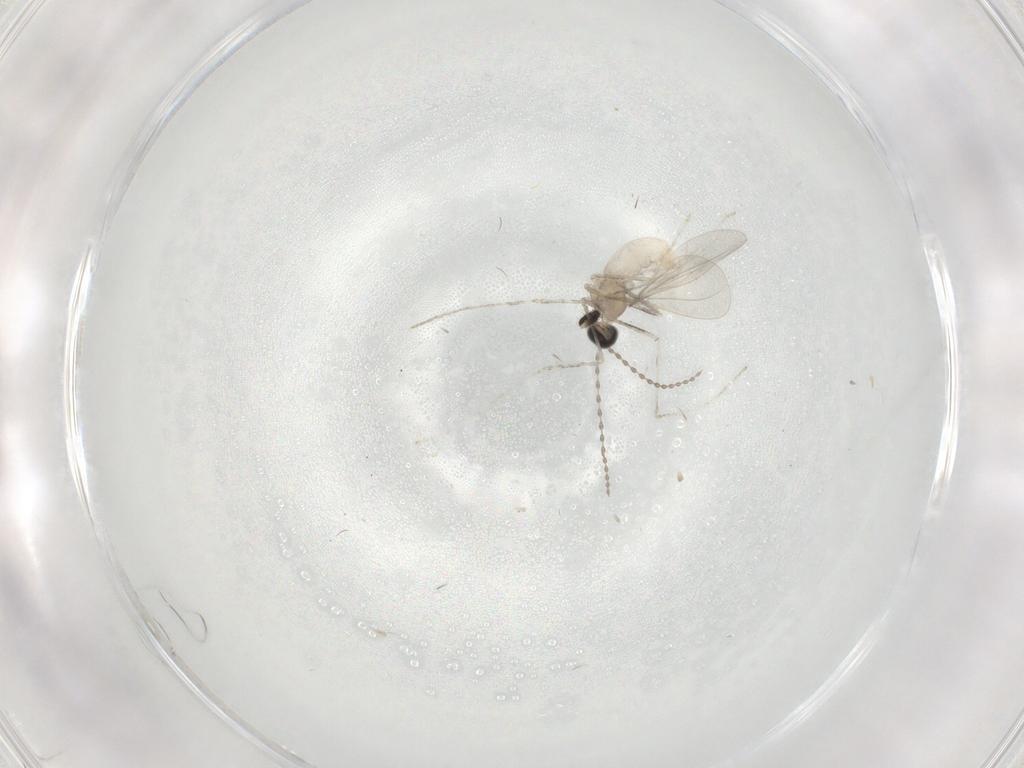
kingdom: Animalia
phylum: Arthropoda
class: Insecta
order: Diptera
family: Cecidomyiidae
